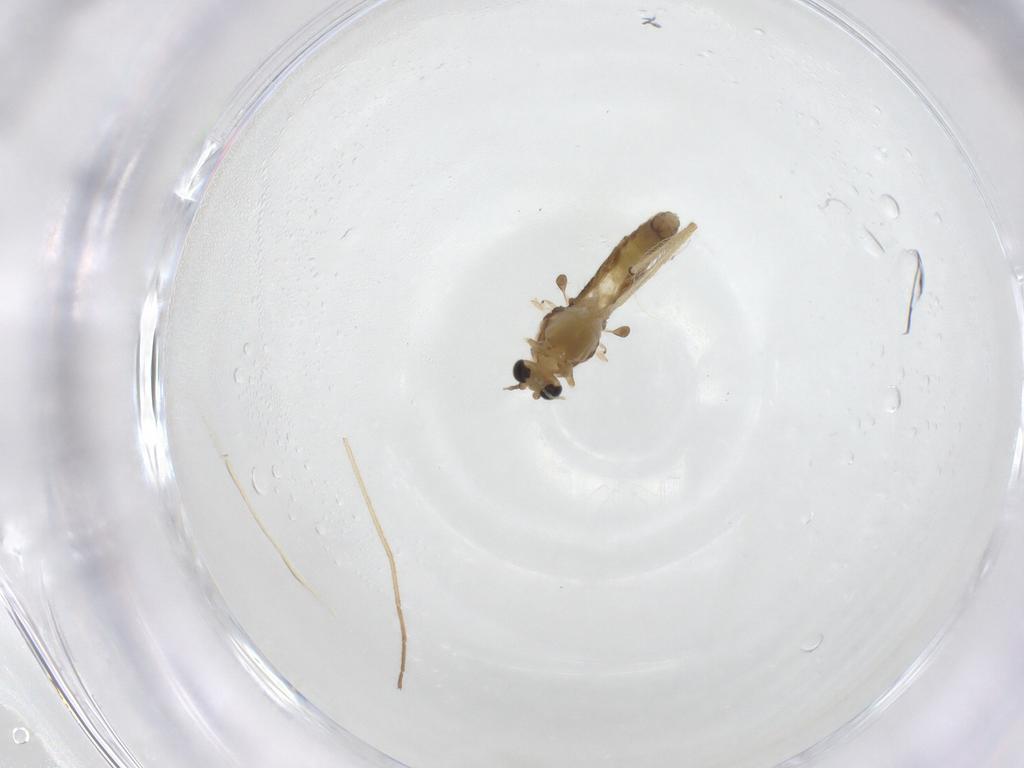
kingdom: Animalia
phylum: Arthropoda
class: Insecta
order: Diptera
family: Chironomidae
